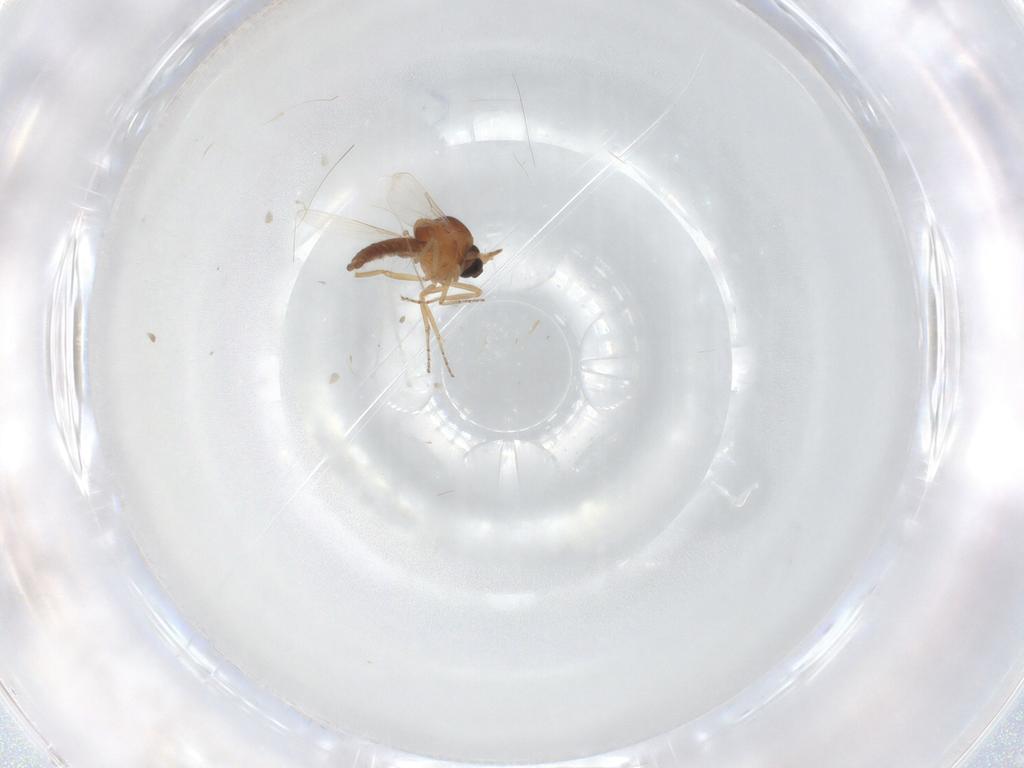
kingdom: Animalia
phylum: Arthropoda
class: Insecta
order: Diptera
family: Ceratopogonidae
